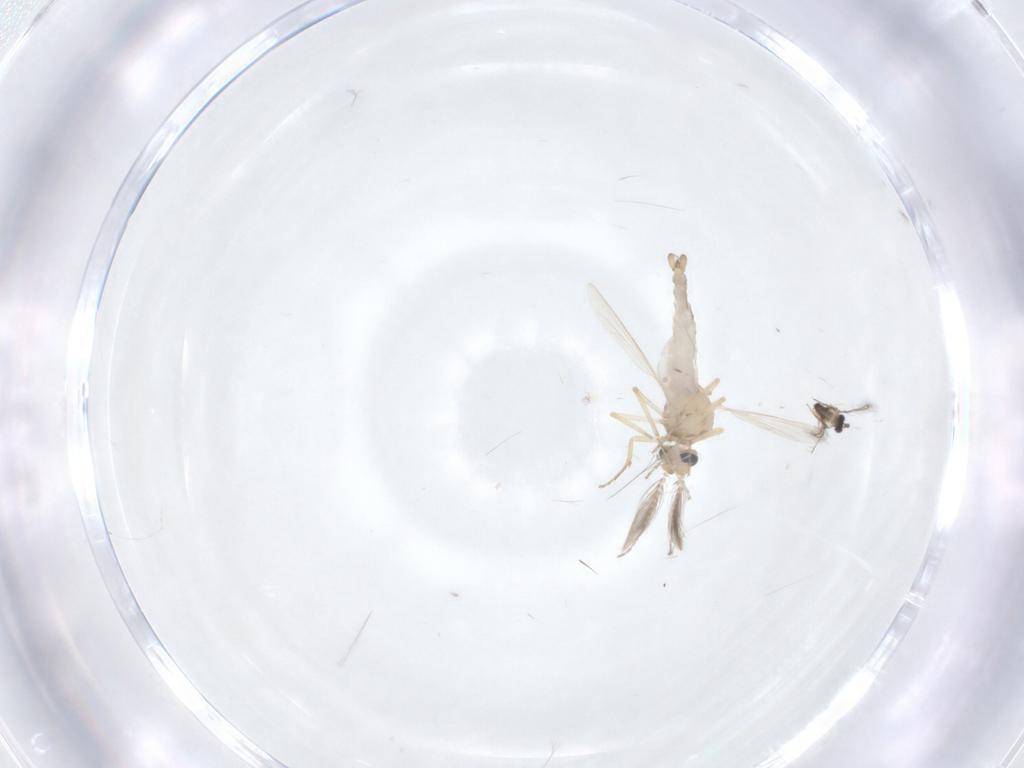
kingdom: Animalia
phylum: Arthropoda
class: Insecta
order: Diptera
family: Ceratopogonidae
